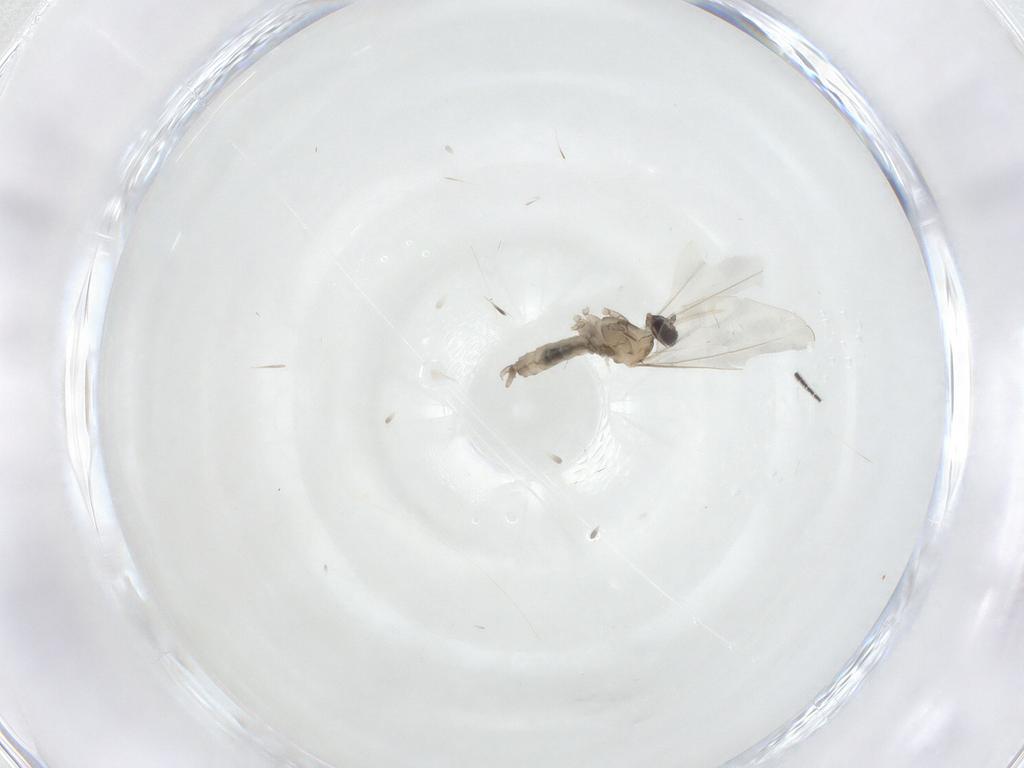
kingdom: Animalia
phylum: Arthropoda
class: Insecta
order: Diptera
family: Cecidomyiidae
